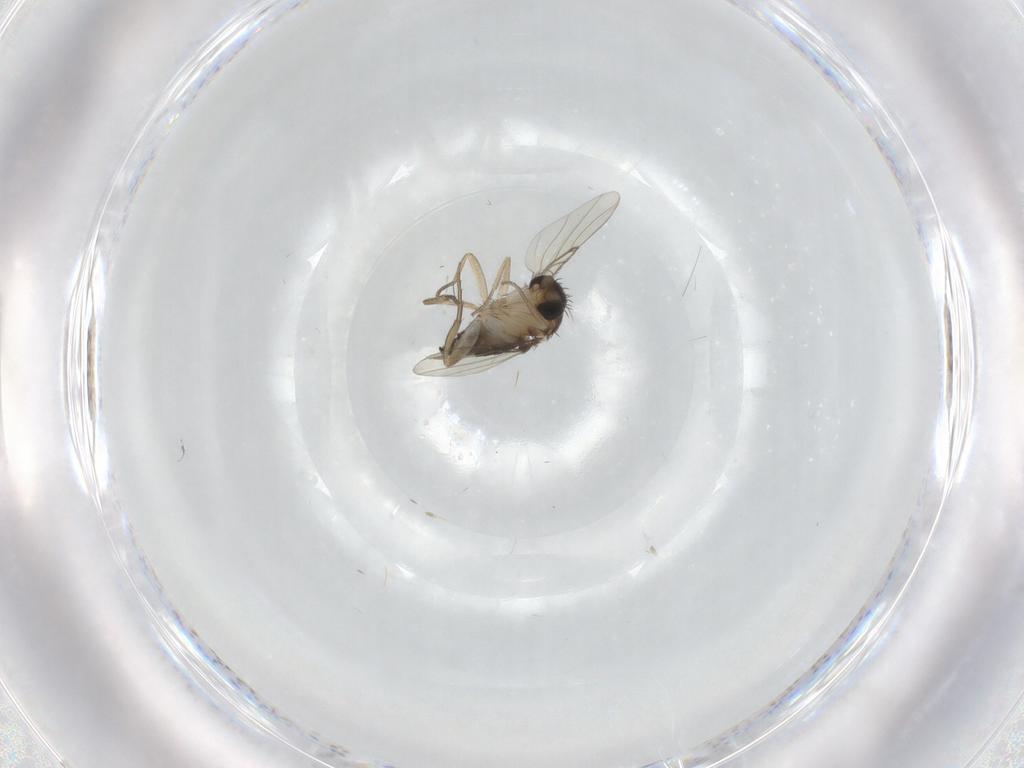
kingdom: Animalia
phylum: Arthropoda
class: Insecta
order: Diptera
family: Phoridae
